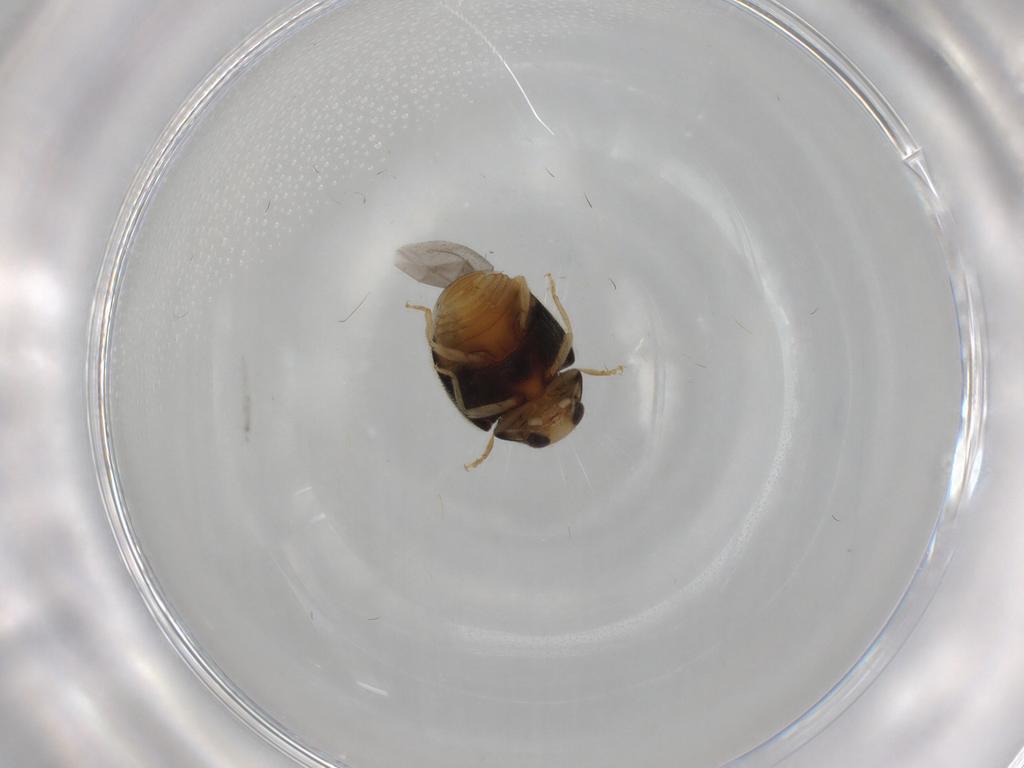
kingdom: Animalia
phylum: Arthropoda
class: Insecta
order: Coleoptera
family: Coccinellidae
